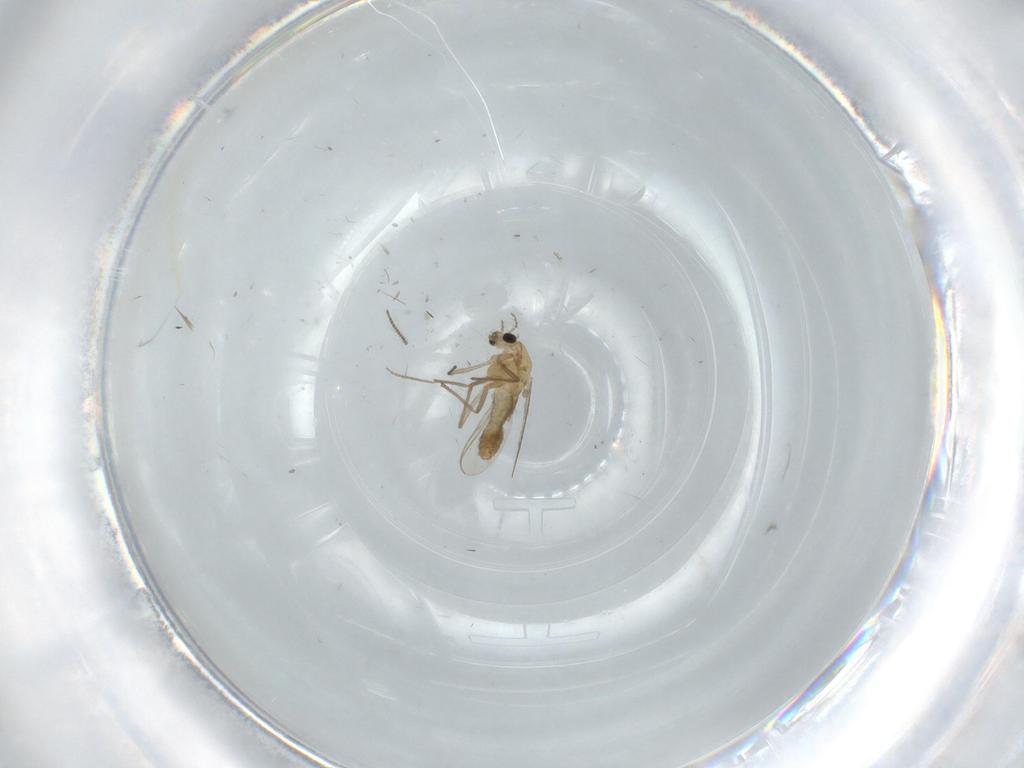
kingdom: Animalia
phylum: Arthropoda
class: Insecta
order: Diptera
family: Chironomidae
